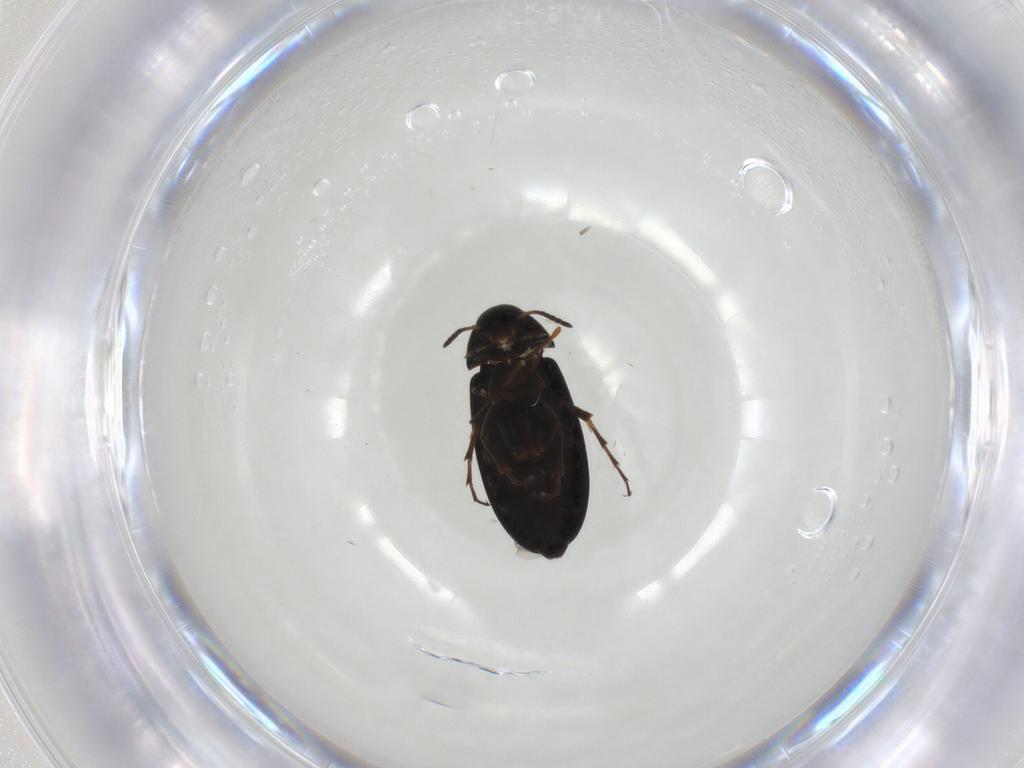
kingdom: Animalia
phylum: Arthropoda
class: Insecta
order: Coleoptera
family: Scraptiidae
